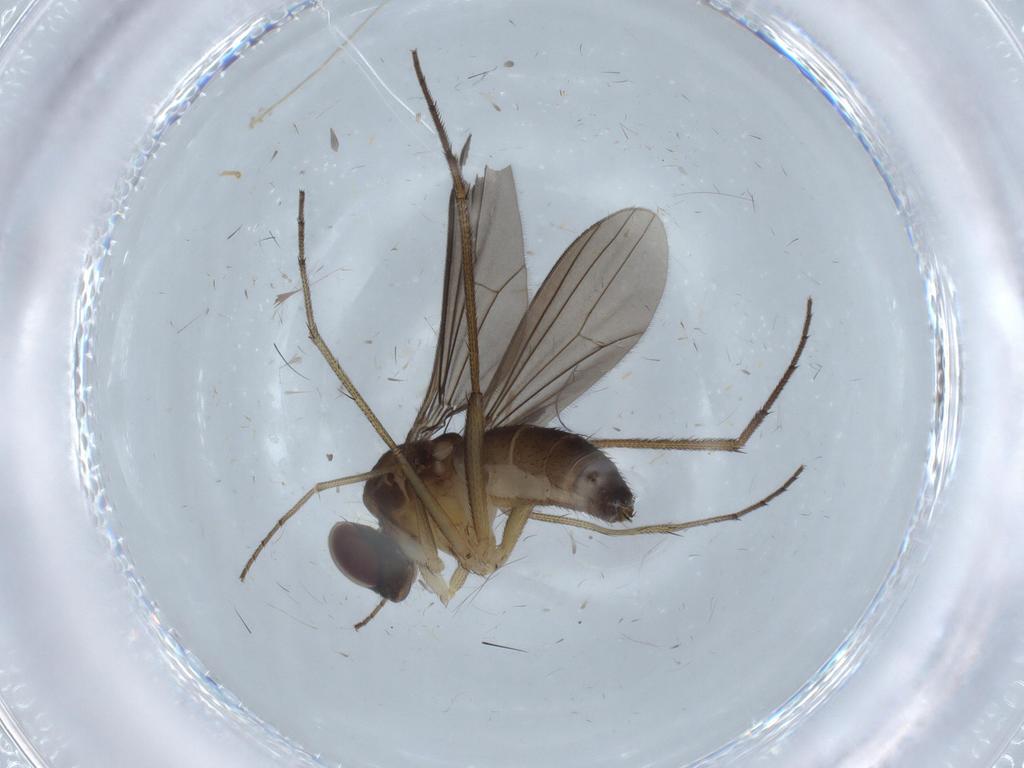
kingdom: Animalia
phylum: Arthropoda
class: Insecta
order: Diptera
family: Dolichopodidae
